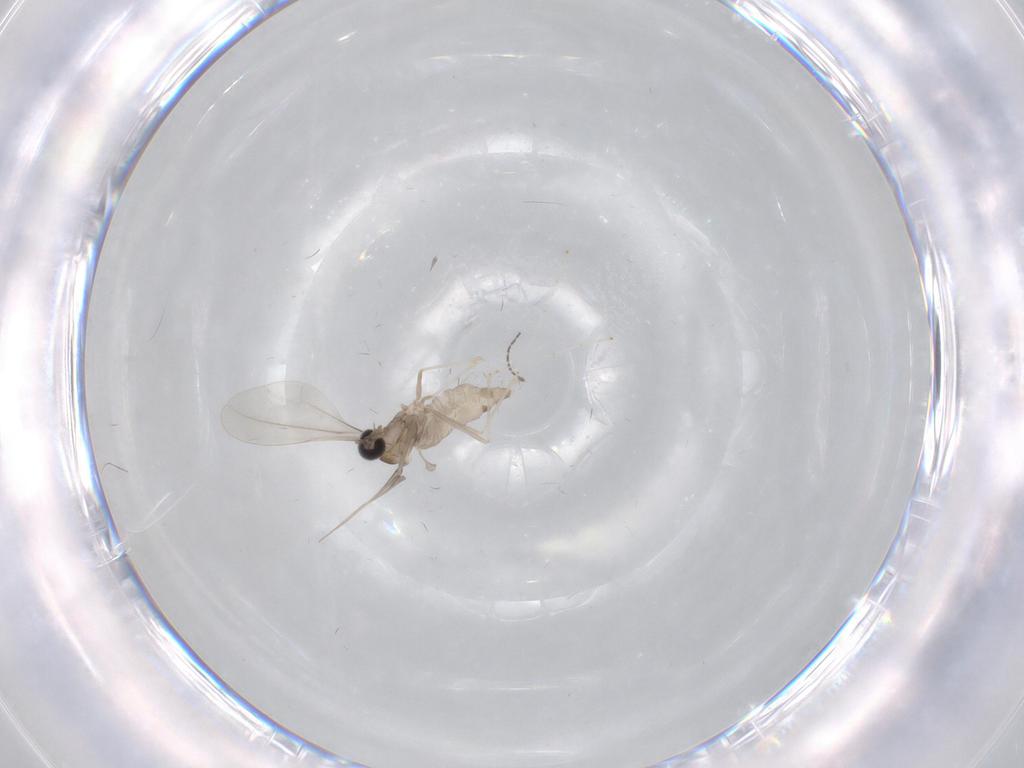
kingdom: Animalia
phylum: Arthropoda
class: Insecta
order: Diptera
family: Cecidomyiidae
